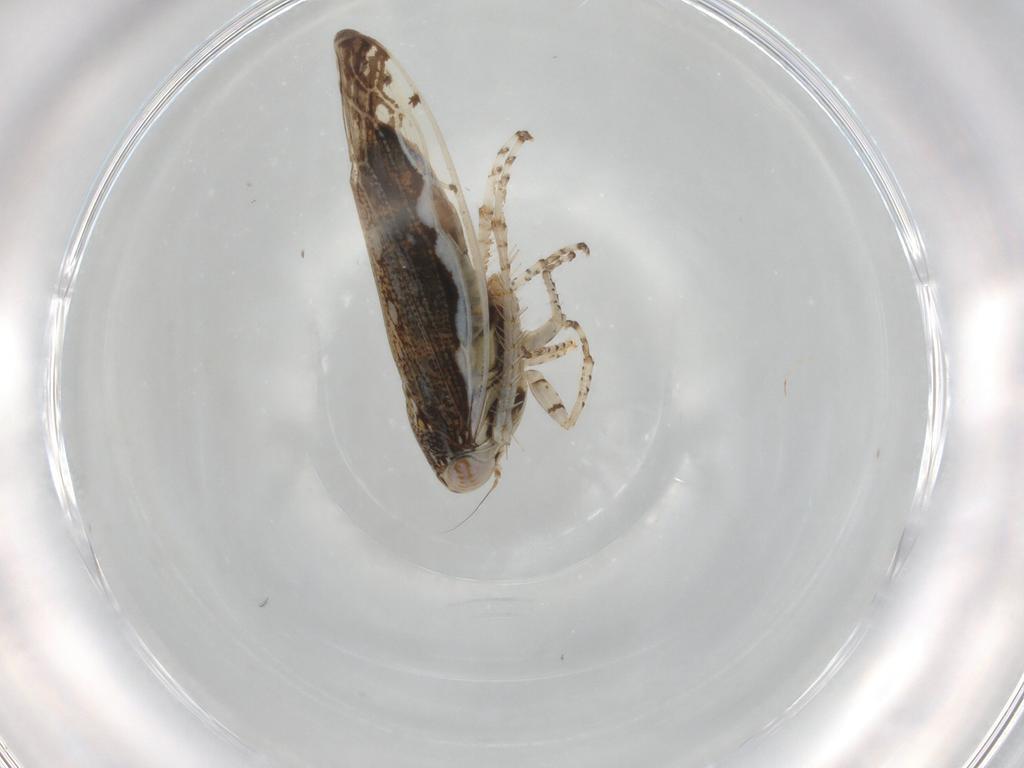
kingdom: Animalia
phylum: Arthropoda
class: Insecta
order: Hemiptera
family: Cicadellidae
